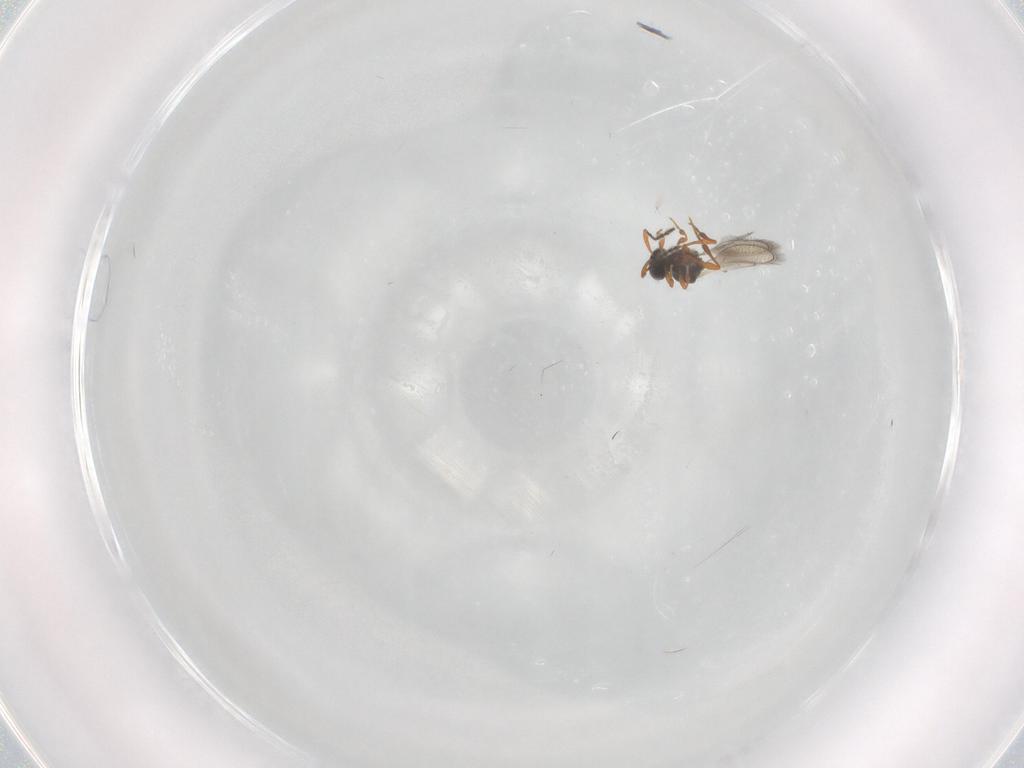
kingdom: Animalia
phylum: Arthropoda
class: Insecta
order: Hymenoptera
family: Platygastridae
